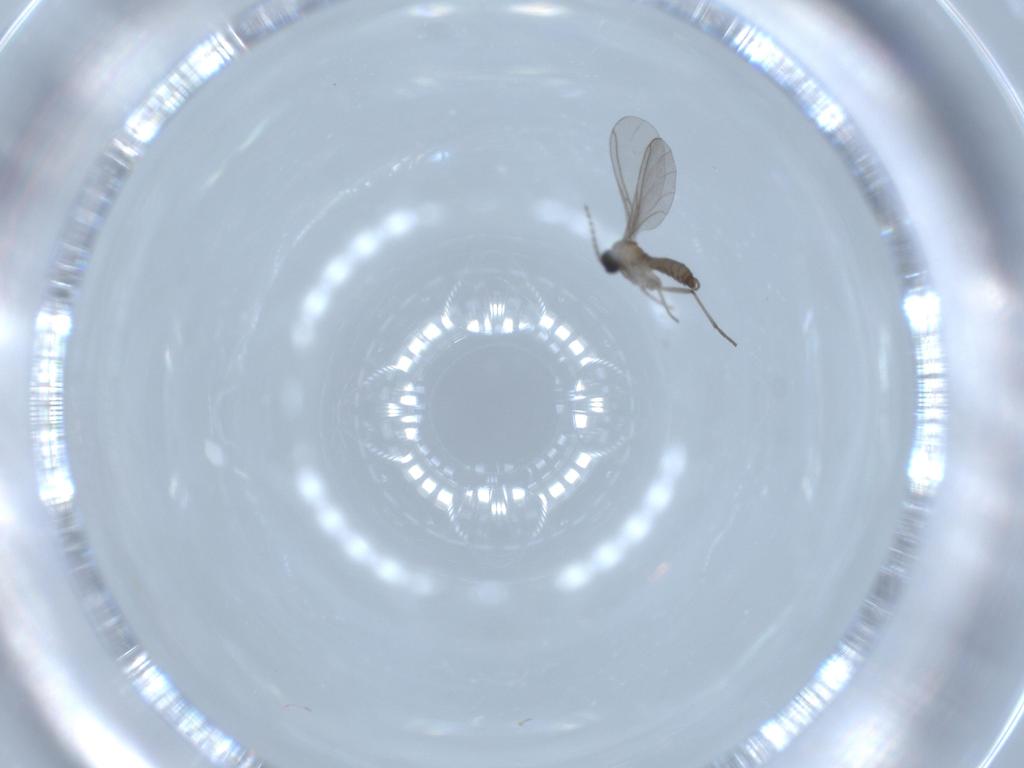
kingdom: Animalia
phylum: Arthropoda
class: Insecta
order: Diptera
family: Sciaridae
